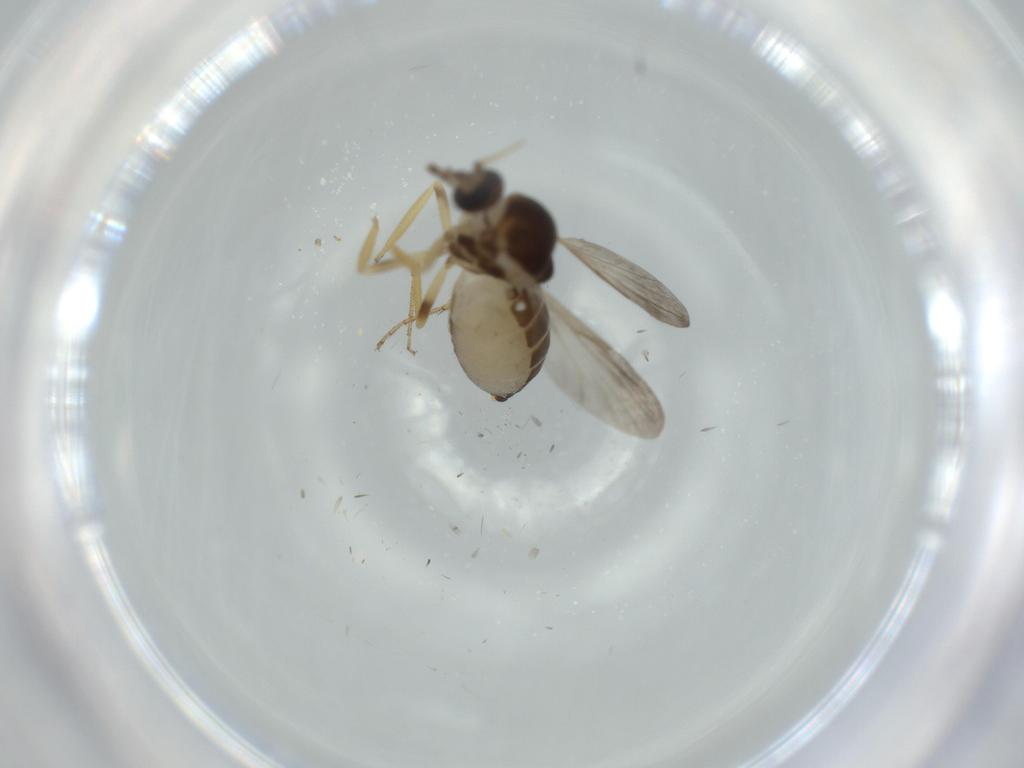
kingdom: Animalia
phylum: Arthropoda
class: Insecta
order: Diptera
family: Ceratopogonidae
